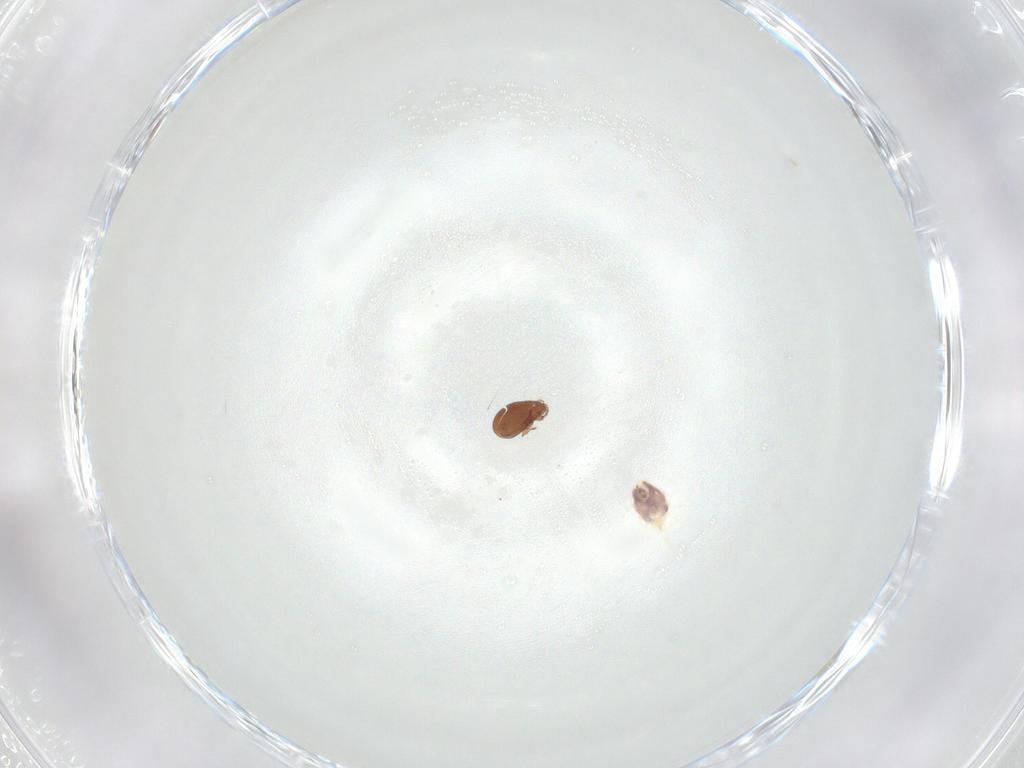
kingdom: Animalia
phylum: Arthropoda
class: Arachnida
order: Mesostigmata
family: Phytoseiidae
